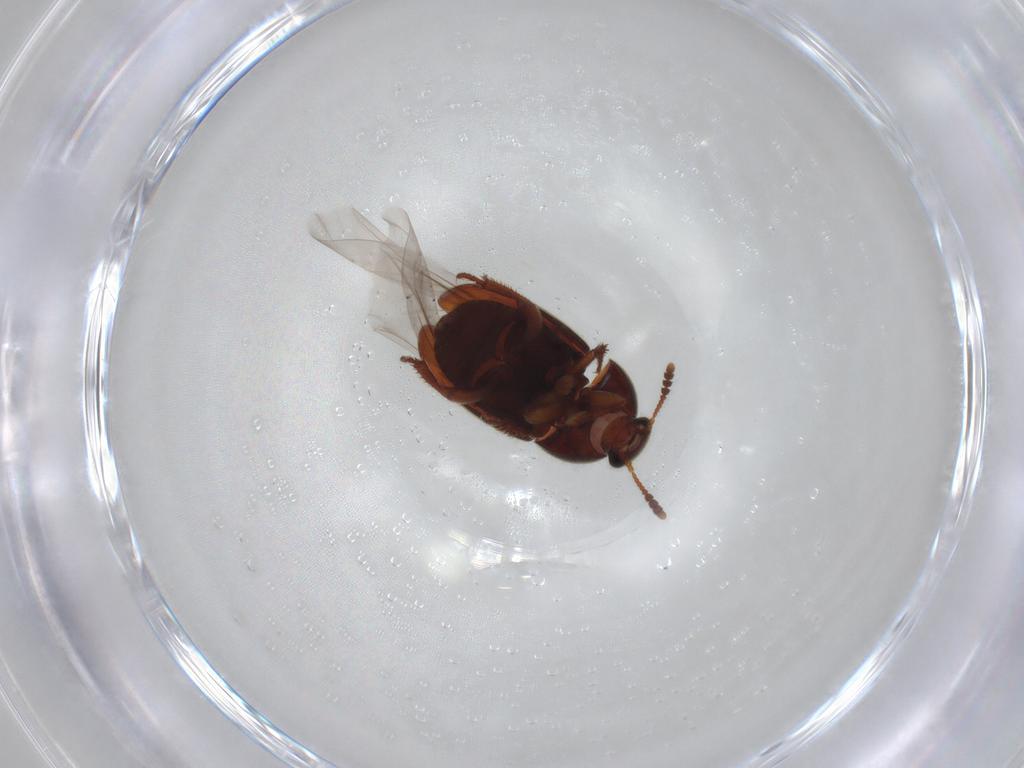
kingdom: Animalia
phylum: Arthropoda
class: Insecta
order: Coleoptera
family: Leiodidae
